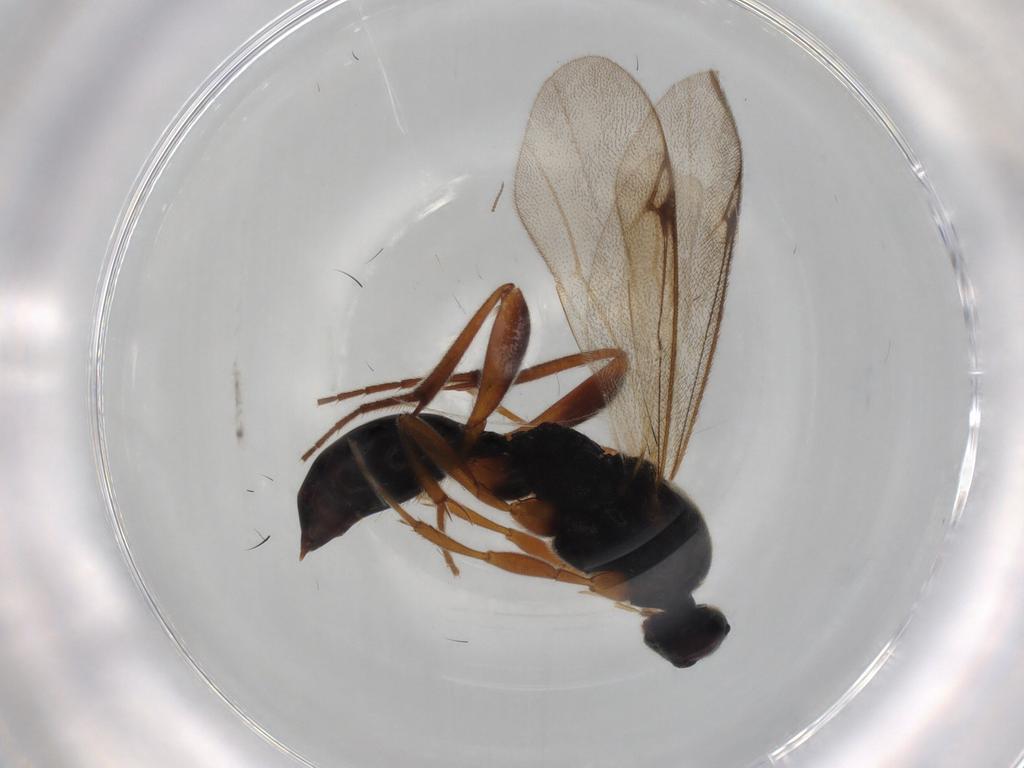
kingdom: Animalia
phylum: Arthropoda
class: Insecta
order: Hymenoptera
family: Proctotrupidae
